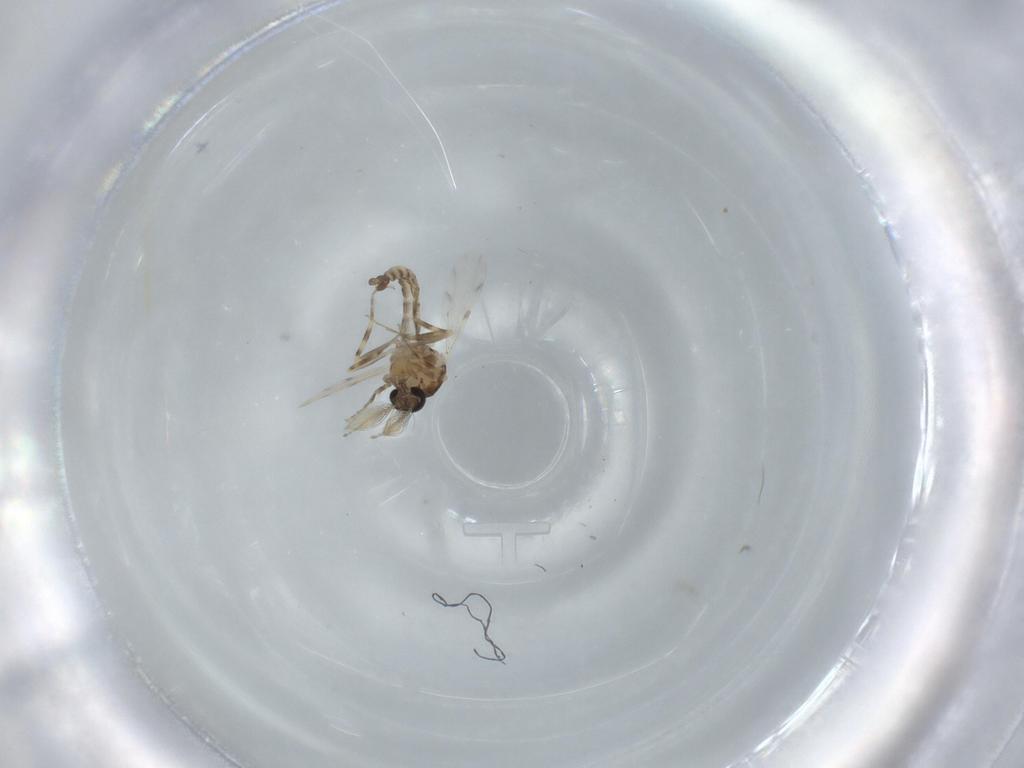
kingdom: Animalia
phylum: Arthropoda
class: Insecta
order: Diptera
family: Ceratopogonidae
